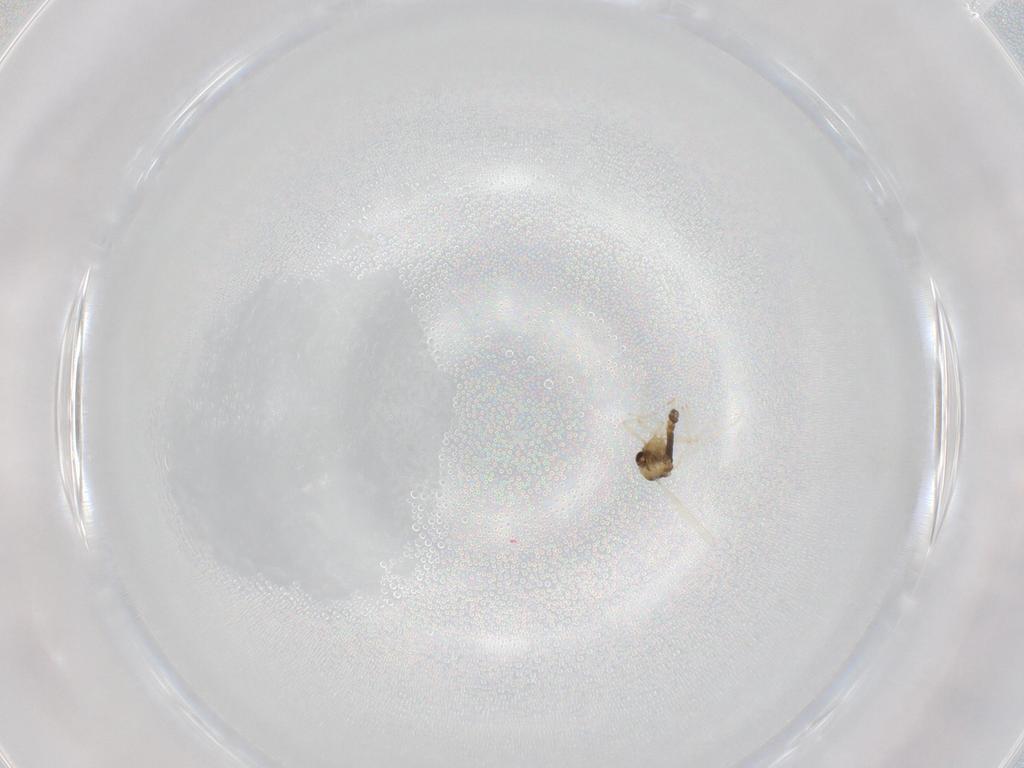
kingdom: Animalia
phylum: Arthropoda
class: Insecta
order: Diptera
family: Chironomidae
